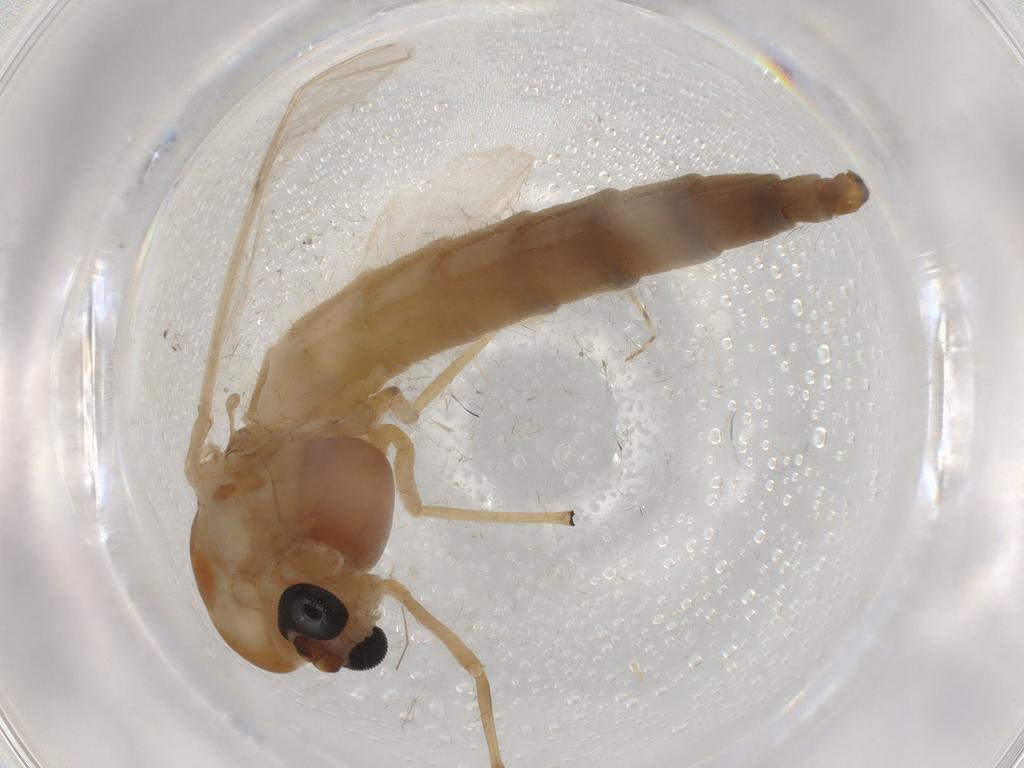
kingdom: Animalia
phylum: Arthropoda
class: Insecta
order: Diptera
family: Chironomidae
